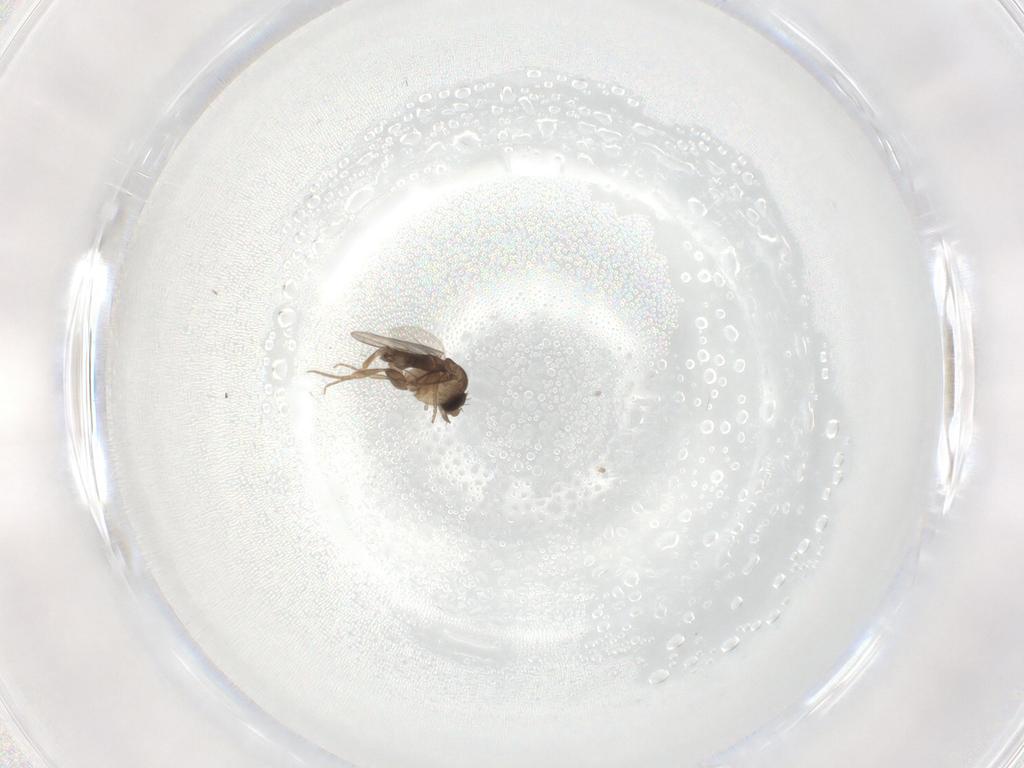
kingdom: Animalia
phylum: Arthropoda
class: Insecta
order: Diptera
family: Phoridae
